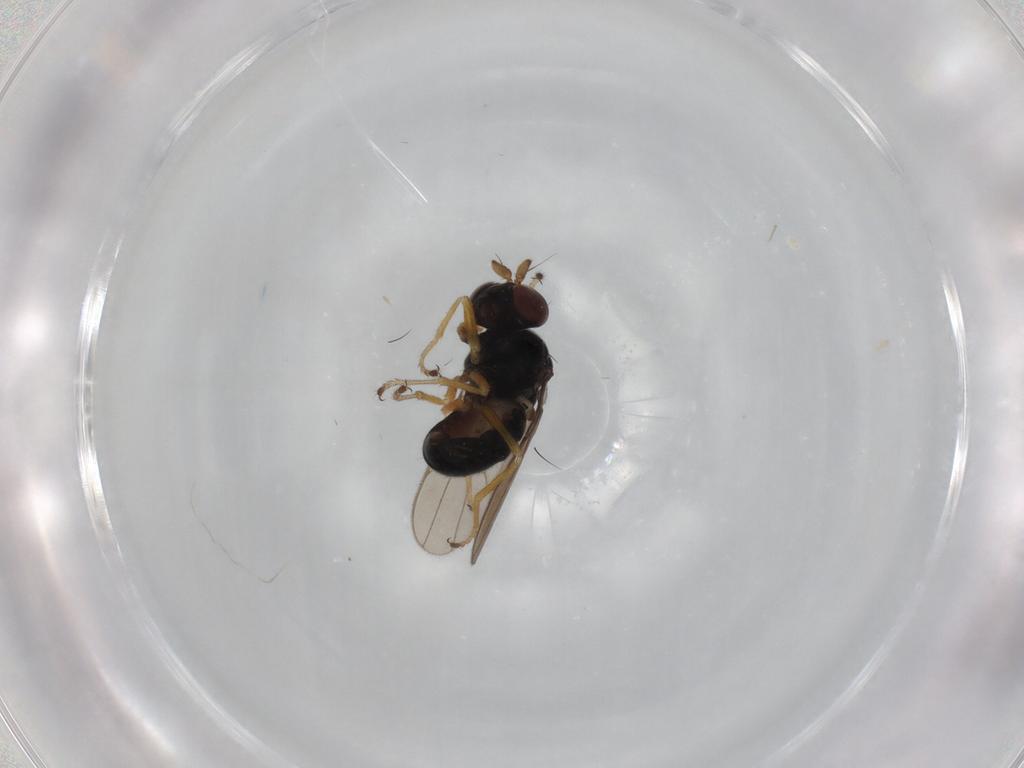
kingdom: Animalia
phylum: Arthropoda
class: Insecta
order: Diptera
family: Ephydridae
